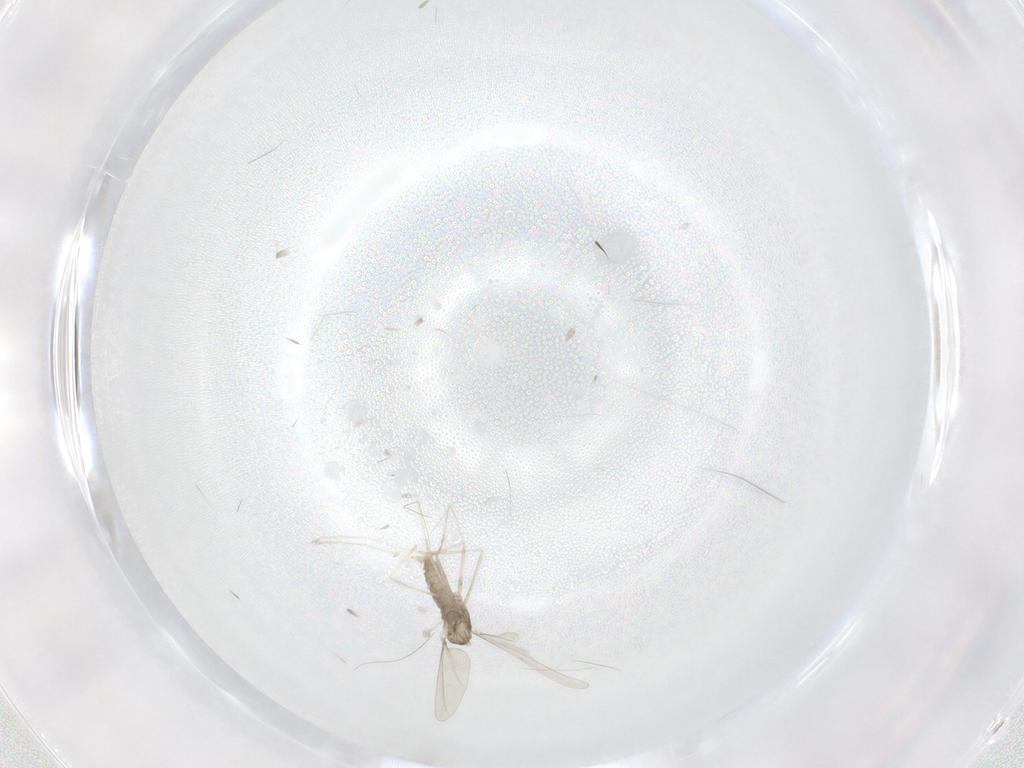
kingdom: Animalia
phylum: Arthropoda
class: Insecta
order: Diptera
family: Cecidomyiidae
